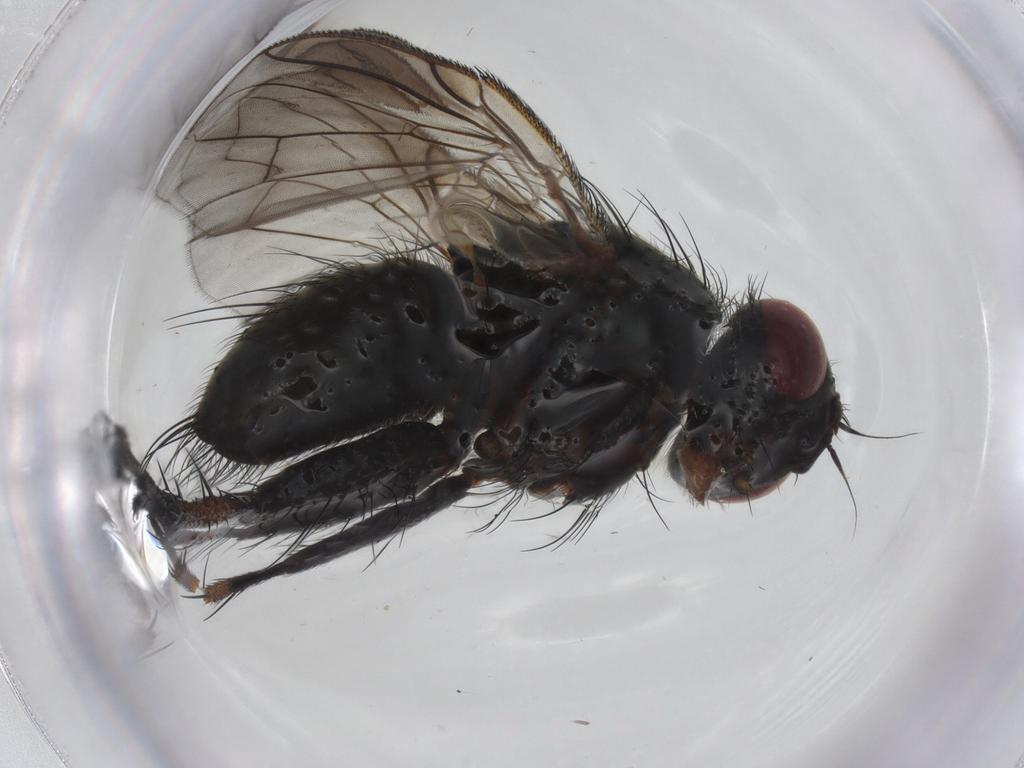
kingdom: Animalia
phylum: Arthropoda
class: Insecta
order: Diptera
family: Tachinidae
